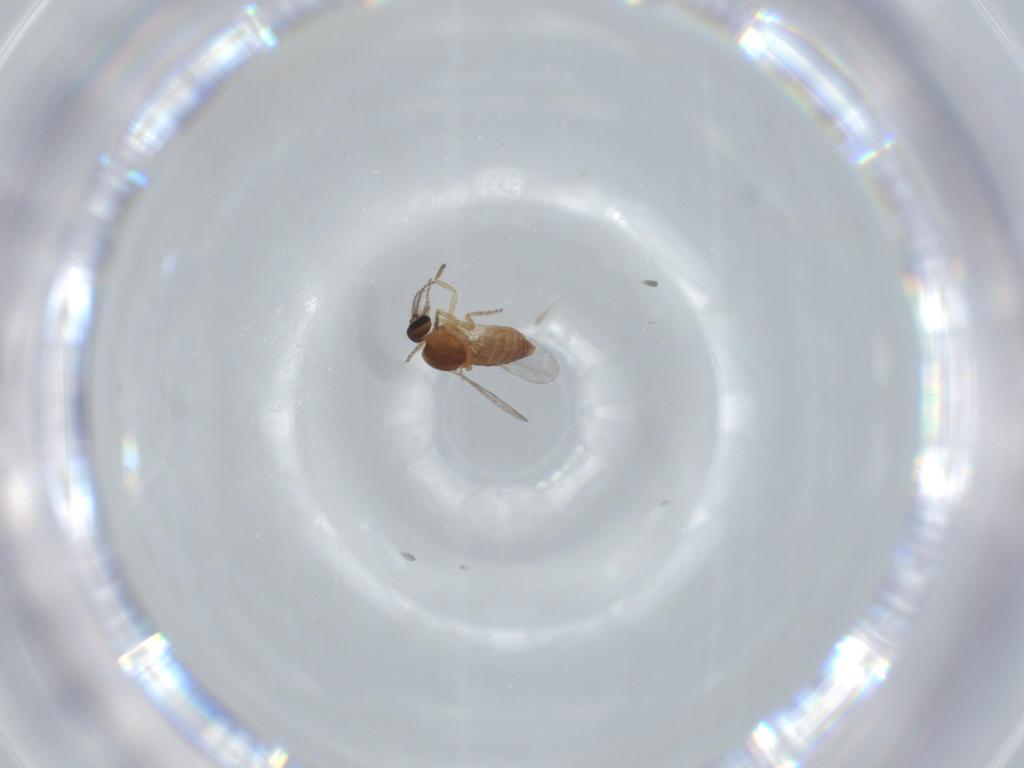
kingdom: Animalia
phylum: Arthropoda
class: Insecta
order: Diptera
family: Ceratopogonidae
